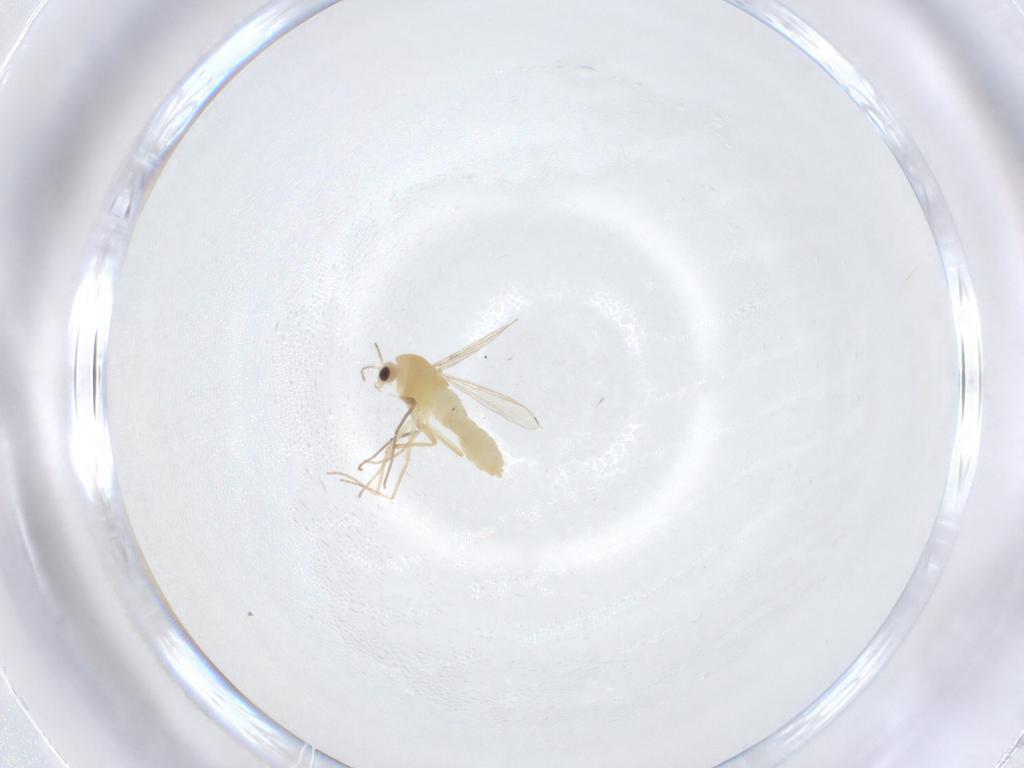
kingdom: Animalia
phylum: Arthropoda
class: Insecta
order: Diptera
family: Chironomidae
